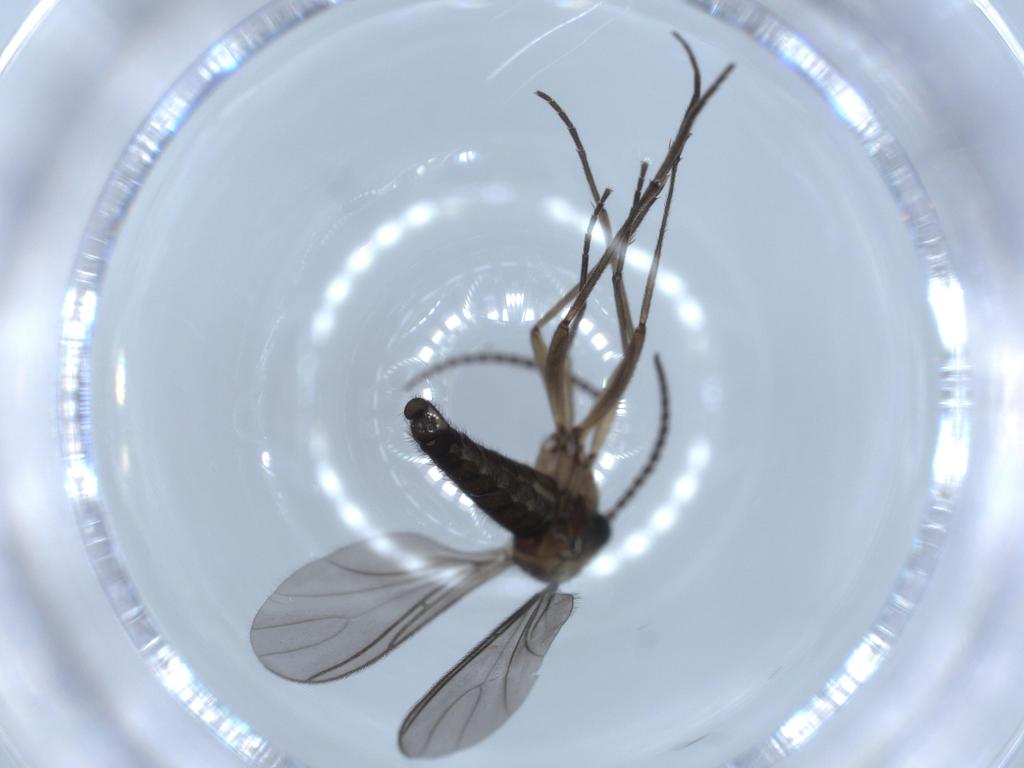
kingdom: Animalia
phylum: Arthropoda
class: Insecta
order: Diptera
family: Sciaridae
